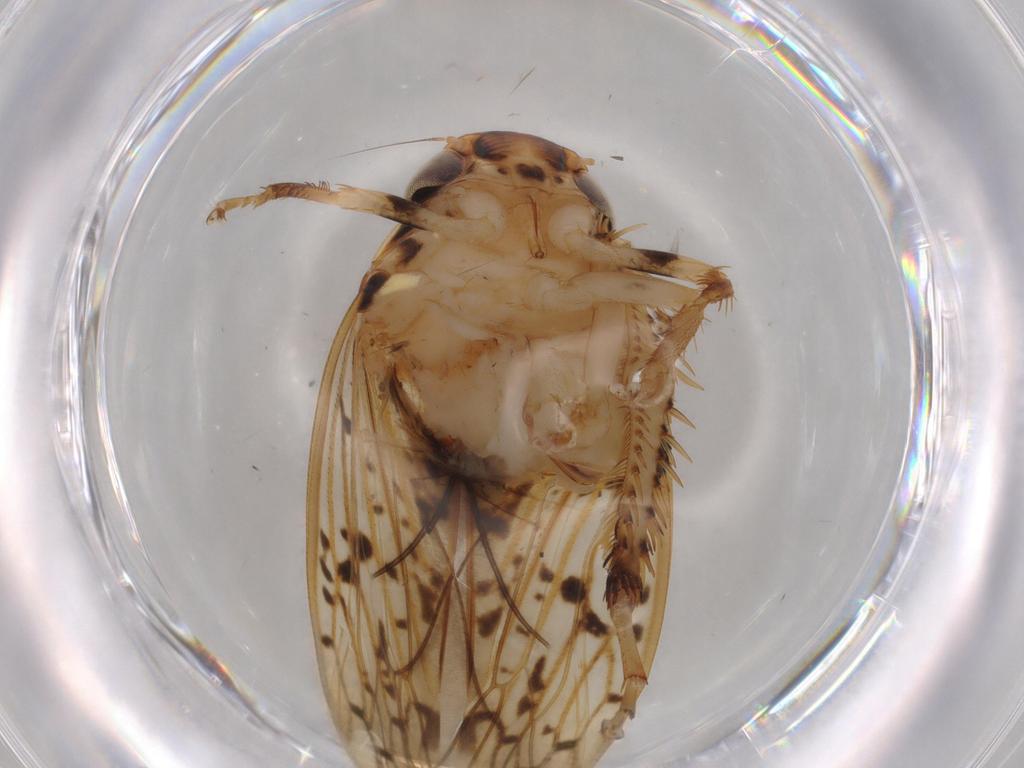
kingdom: Animalia
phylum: Arthropoda
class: Insecta
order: Hemiptera
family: Cicadellidae
